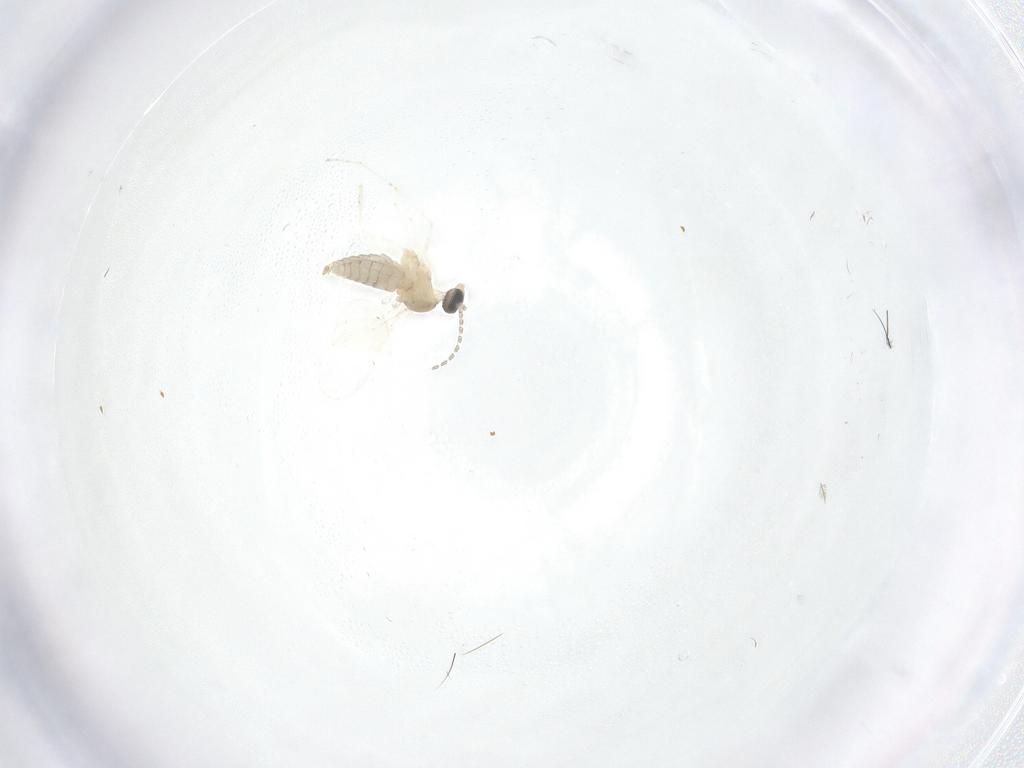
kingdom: Animalia
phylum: Arthropoda
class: Insecta
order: Diptera
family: Cecidomyiidae
